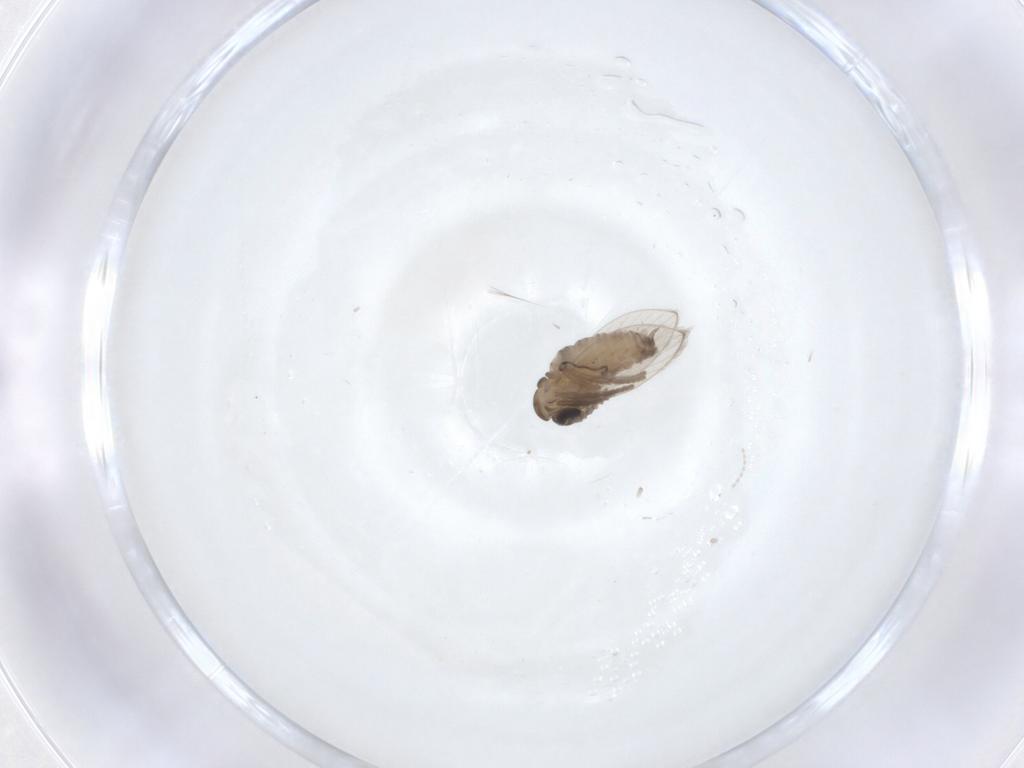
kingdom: Animalia
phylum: Arthropoda
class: Insecta
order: Diptera
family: Psychodidae
